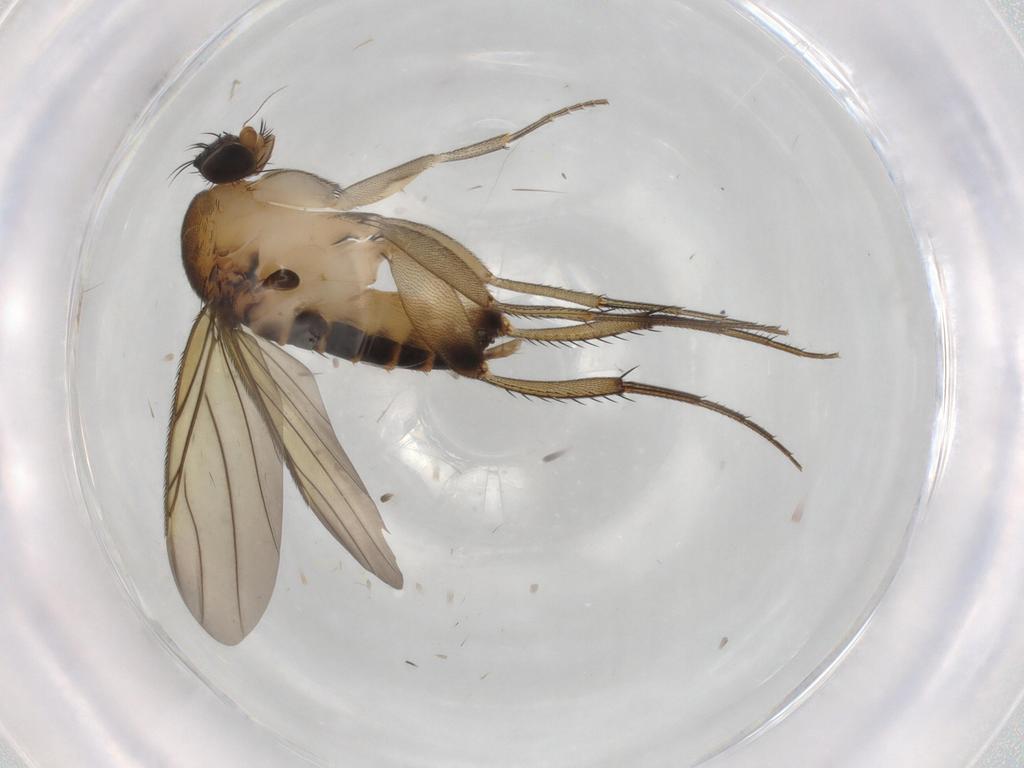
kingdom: Animalia
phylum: Arthropoda
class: Insecta
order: Diptera
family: Phoridae
